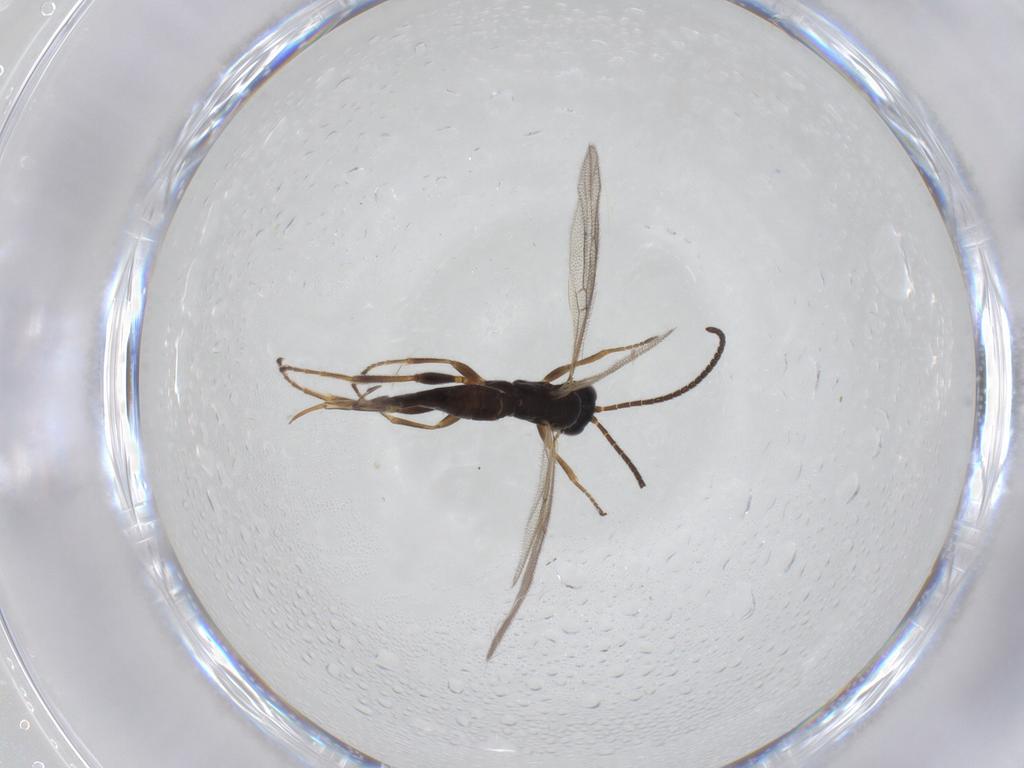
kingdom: Animalia
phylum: Arthropoda
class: Insecta
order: Hymenoptera
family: Ichneumonidae
